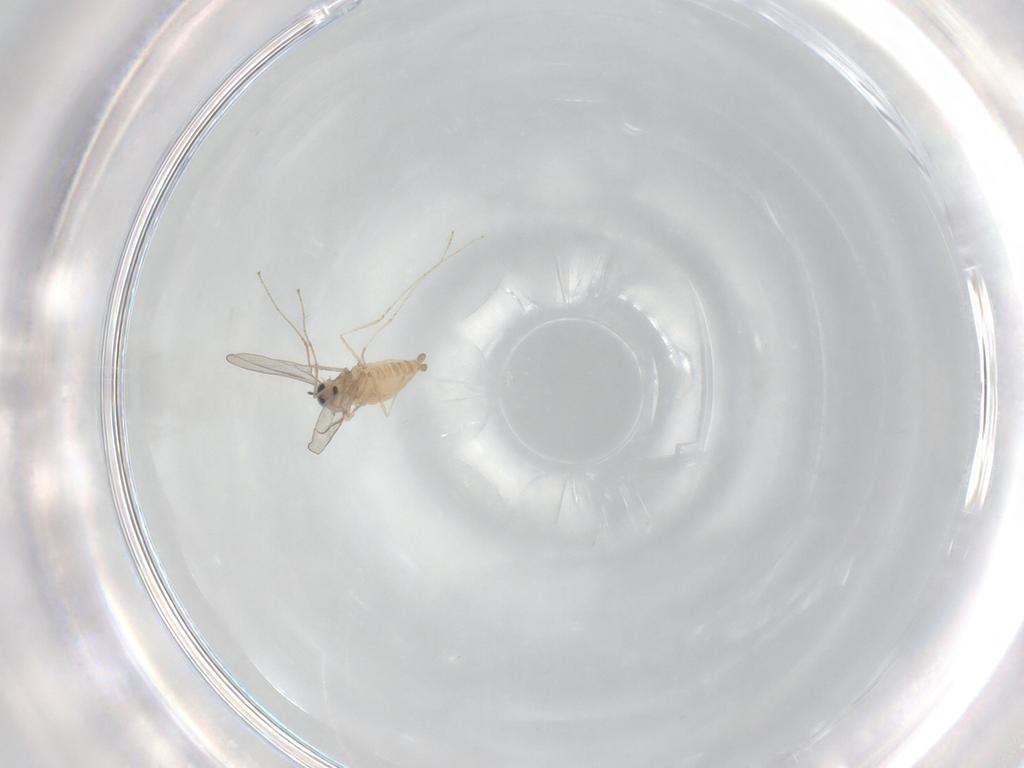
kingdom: Animalia
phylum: Arthropoda
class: Insecta
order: Diptera
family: Cecidomyiidae
